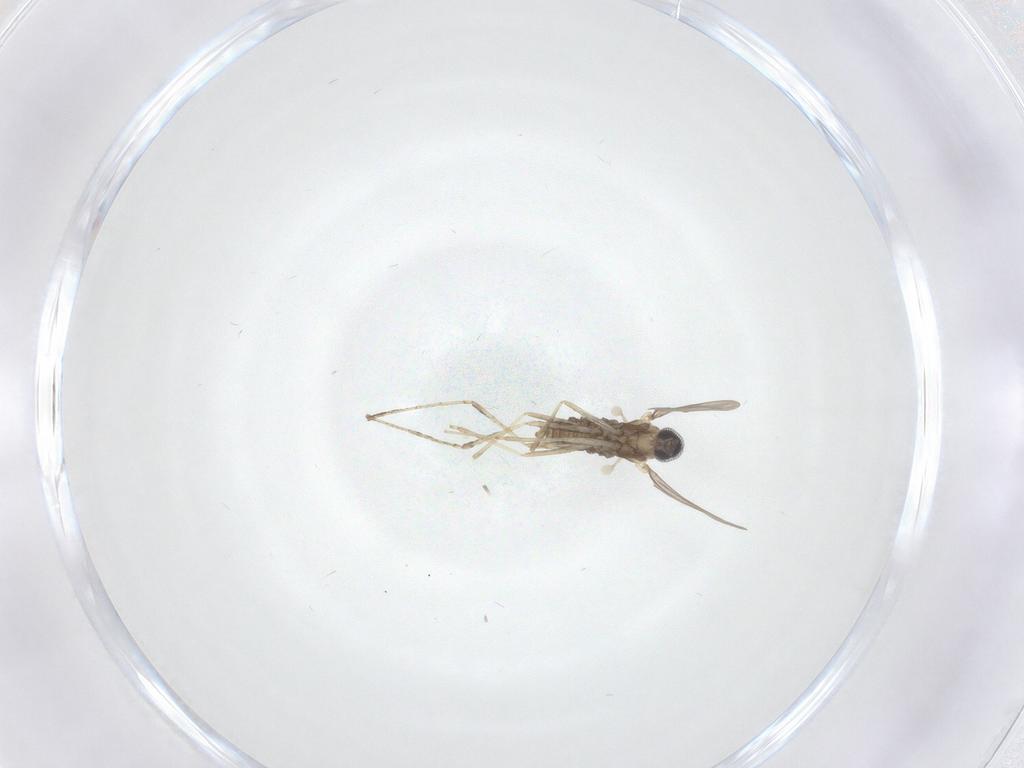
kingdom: Animalia
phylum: Arthropoda
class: Insecta
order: Diptera
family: Cecidomyiidae
